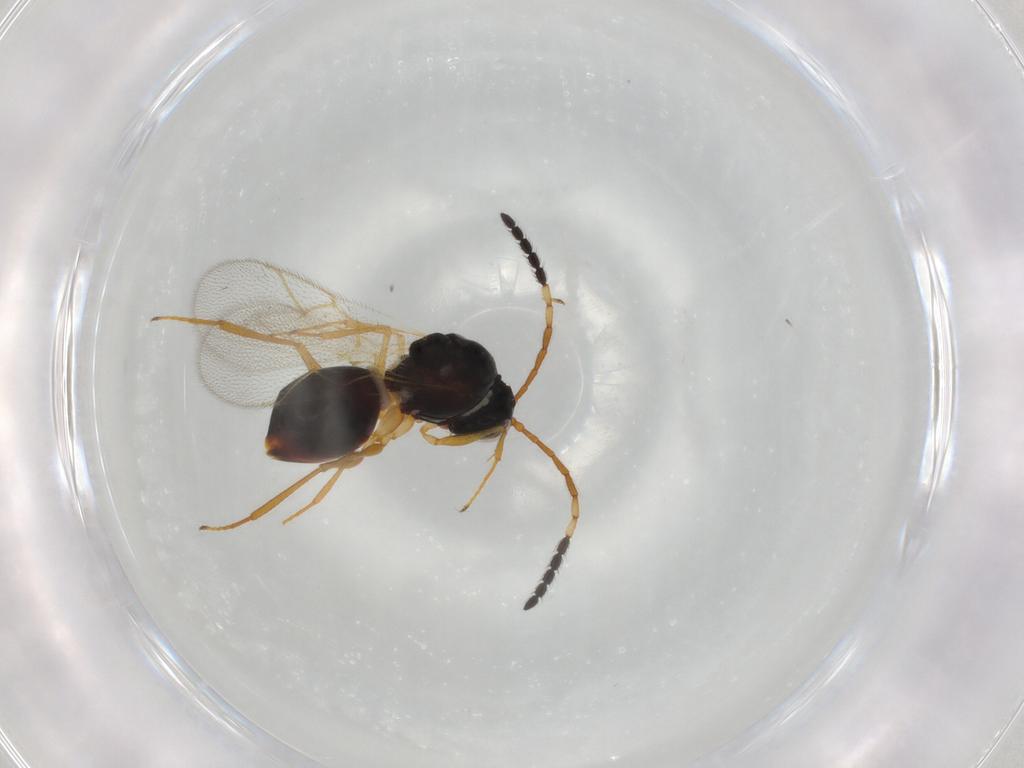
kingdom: Animalia
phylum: Arthropoda
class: Insecta
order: Hymenoptera
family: Figitidae
